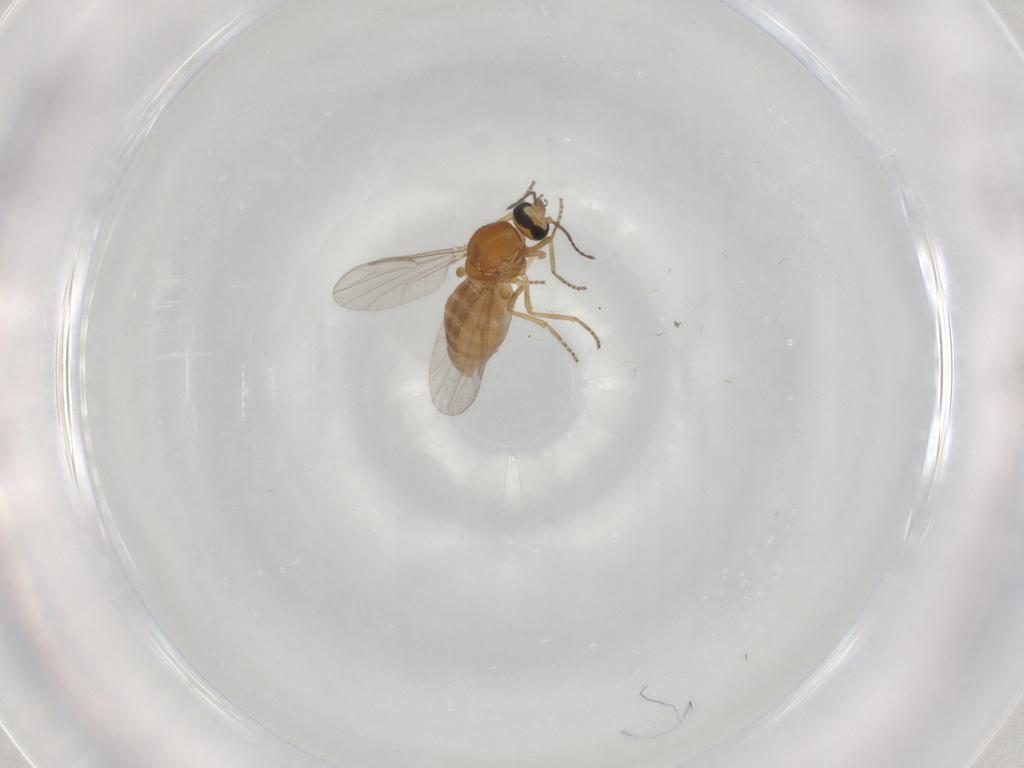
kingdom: Animalia
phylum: Arthropoda
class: Insecta
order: Diptera
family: Ceratopogonidae
